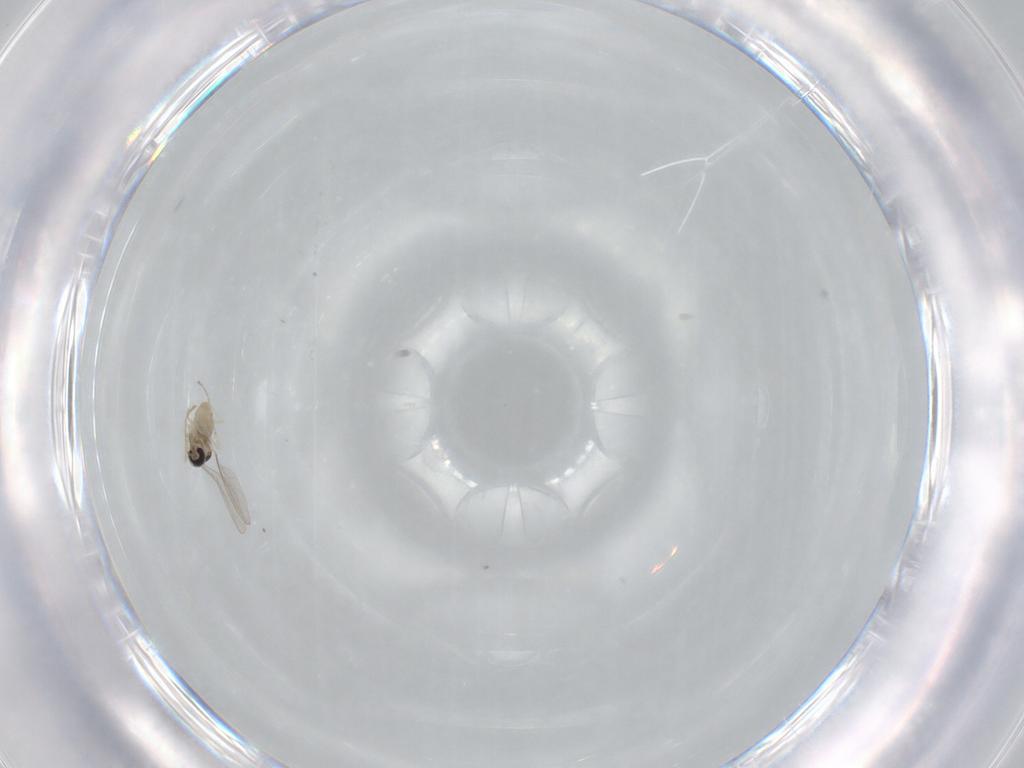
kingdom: Animalia
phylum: Arthropoda
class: Insecta
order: Diptera
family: Cecidomyiidae
